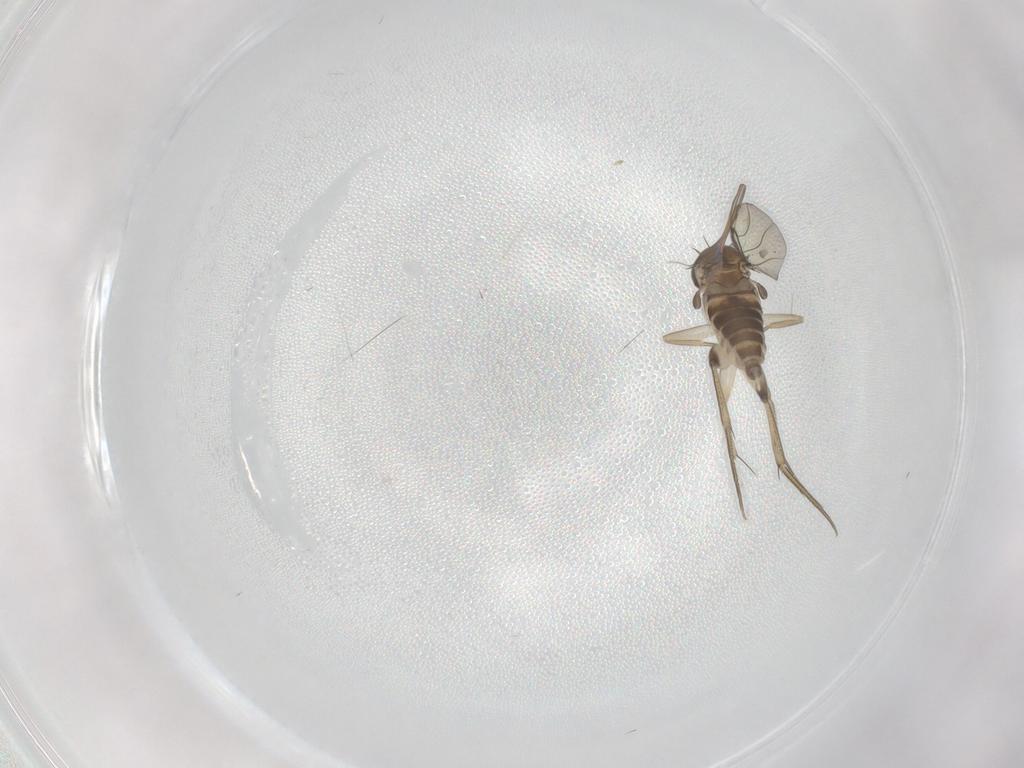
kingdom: Animalia
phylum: Arthropoda
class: Insecta
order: Diptera
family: Phoridae
